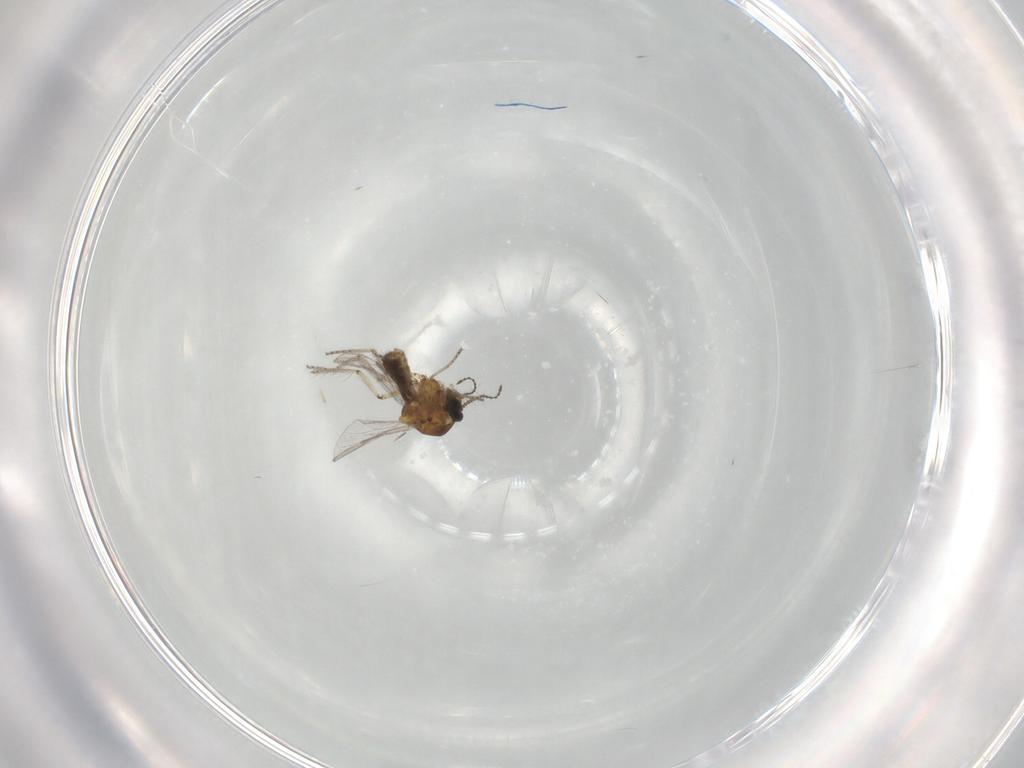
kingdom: Animalia
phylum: Arthropoda
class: Insecta
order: Diptera
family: Ceratopogonidae
